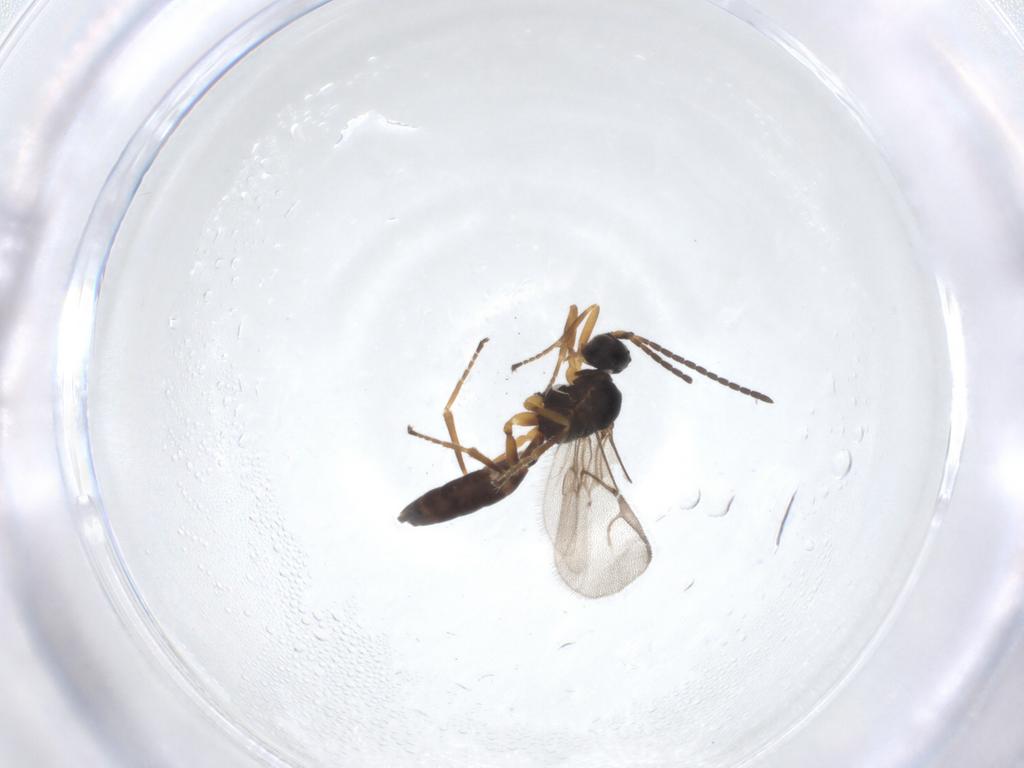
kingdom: Animalia
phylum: Arthropoda
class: Insecta
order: Hymenoptera
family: Braconidae
